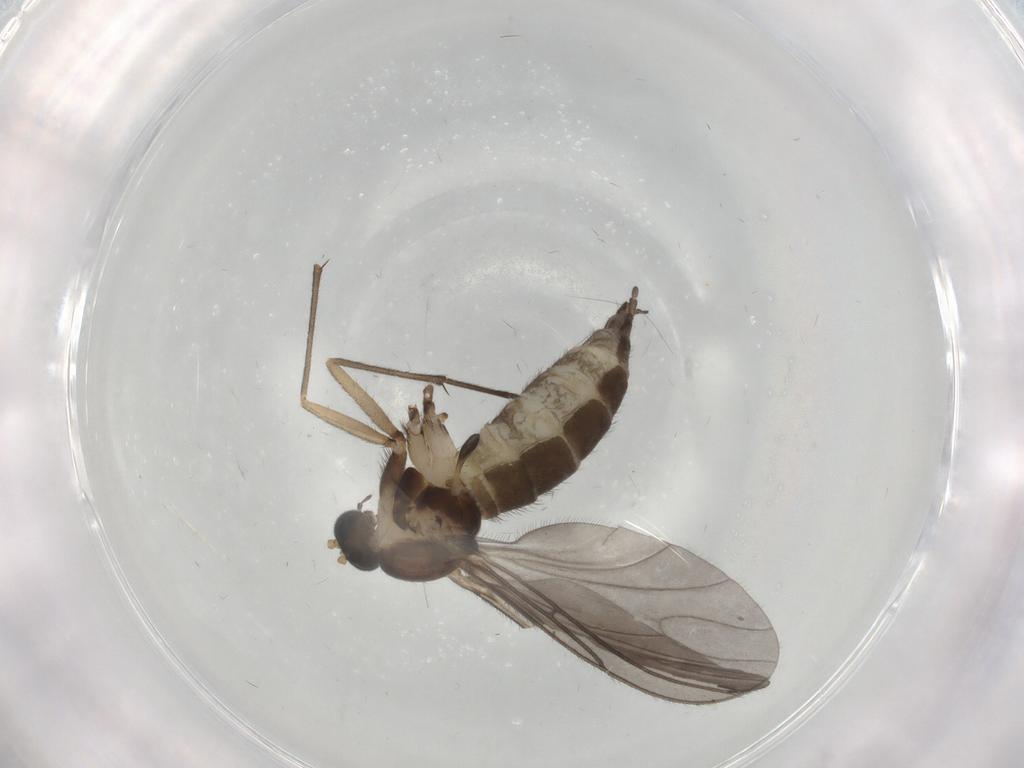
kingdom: Animalia
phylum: Arthropoda
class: Insecta
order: Diptera
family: Sciaridae
